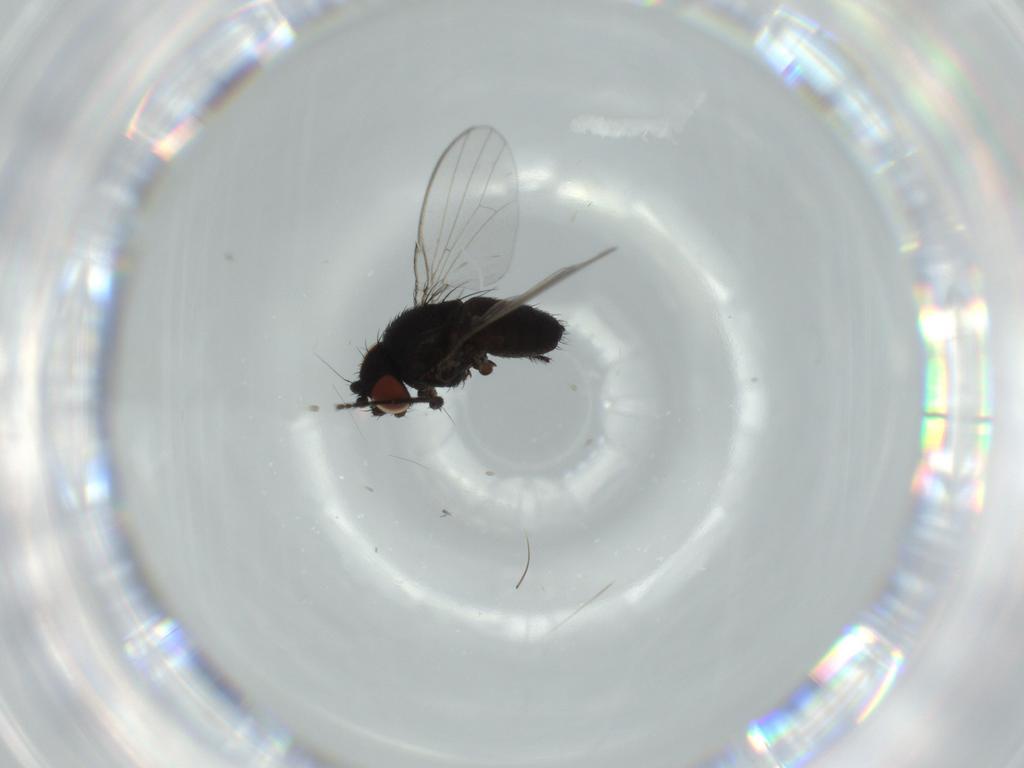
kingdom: Animalia
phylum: Arthropoda
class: Insecta
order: Diptera
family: Milichiidae
